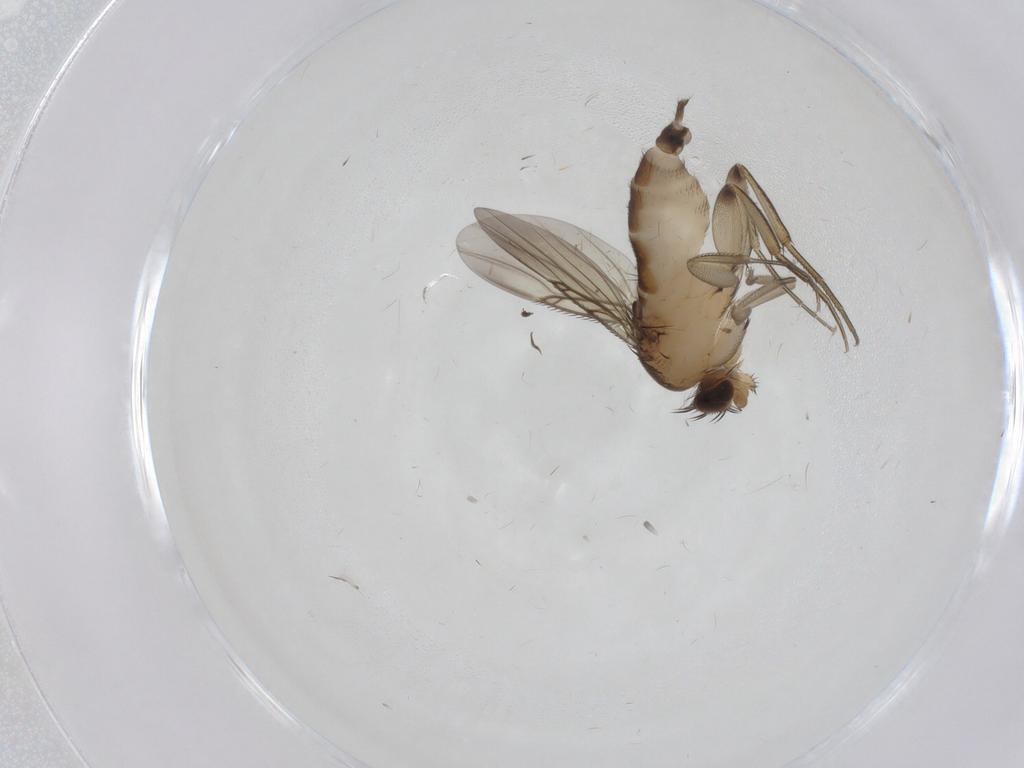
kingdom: Animalia
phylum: Arthropoda
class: Insecta
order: Diptera
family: Phoridae
